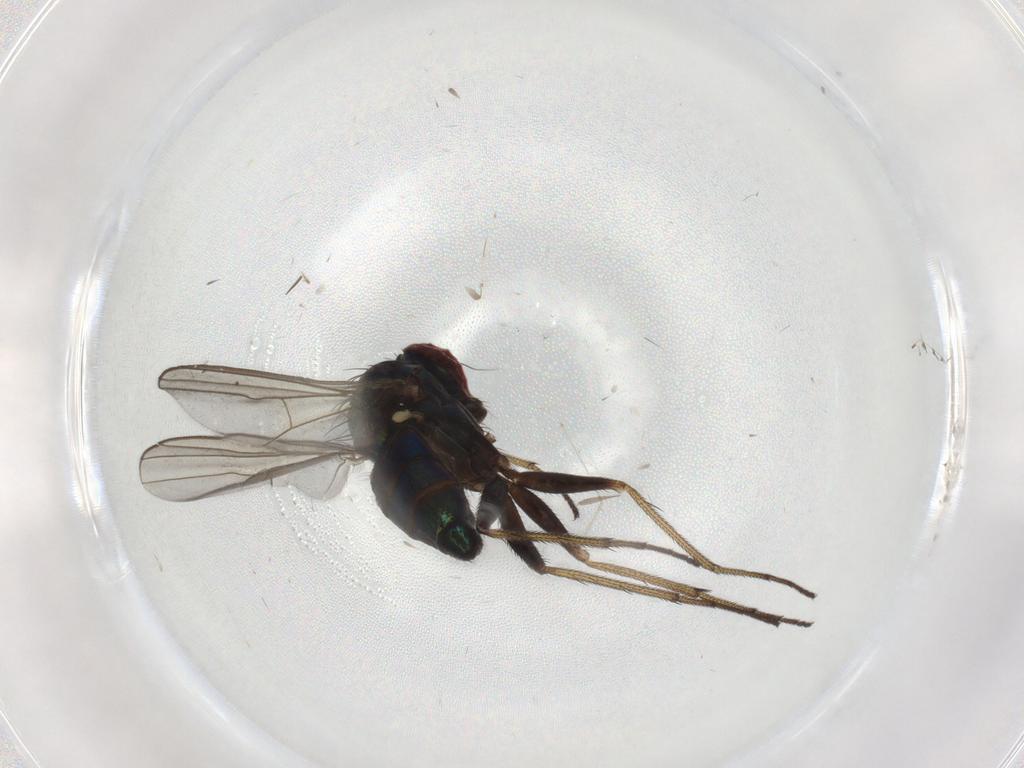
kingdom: Animalia
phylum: Arthropoda
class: Insecta
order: Diptera
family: Dolichopodidae
